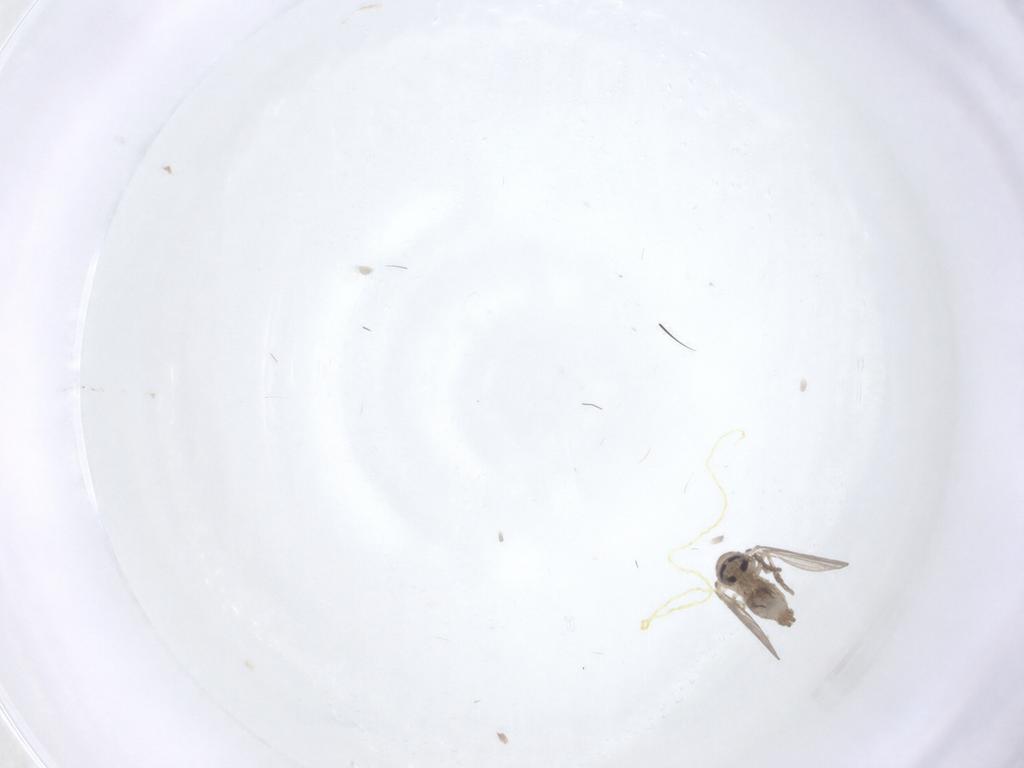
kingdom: Animalia
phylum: Arthropoda
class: Insecta
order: Diptera
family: Psychodidae
